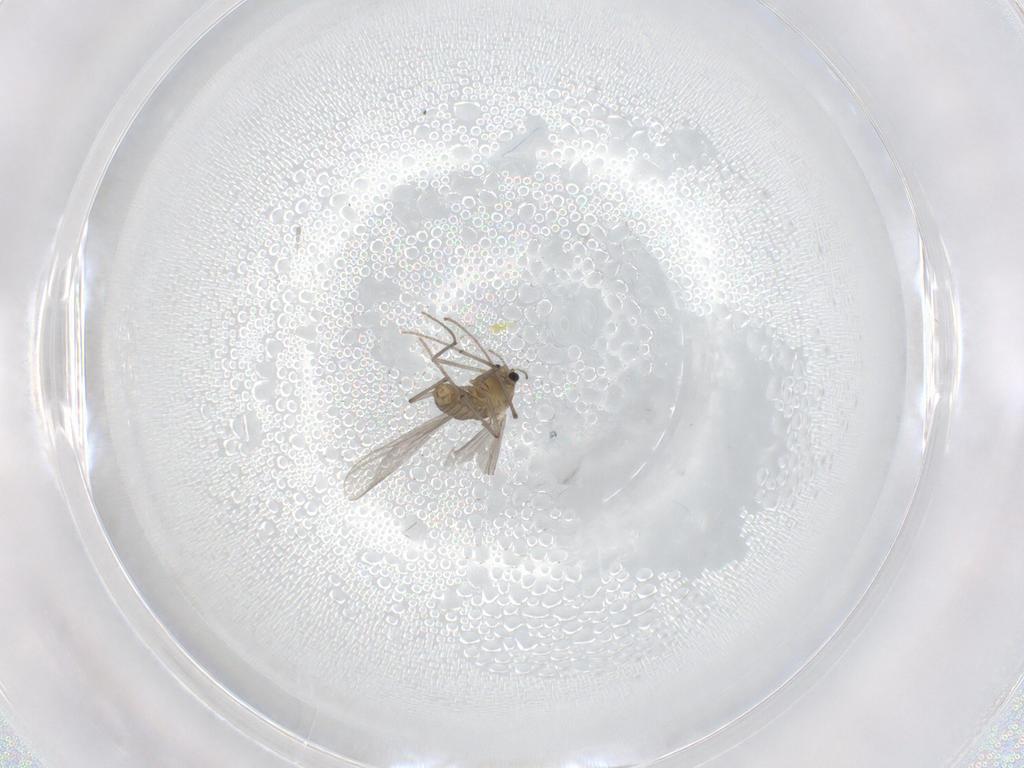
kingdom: Animalia
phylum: Arthropoda
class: Insecta
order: Diptera
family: Chironomidae
